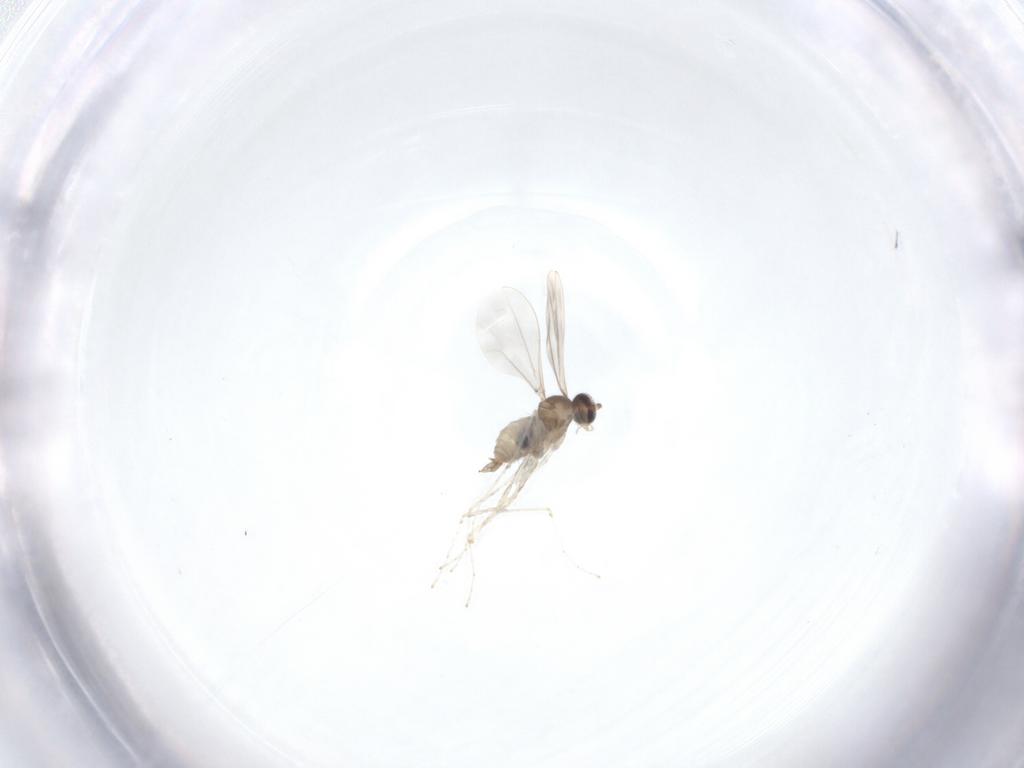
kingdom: Animalia
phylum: Arthropoda
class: Insecta
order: Diptera
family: Cecidomyiidae
